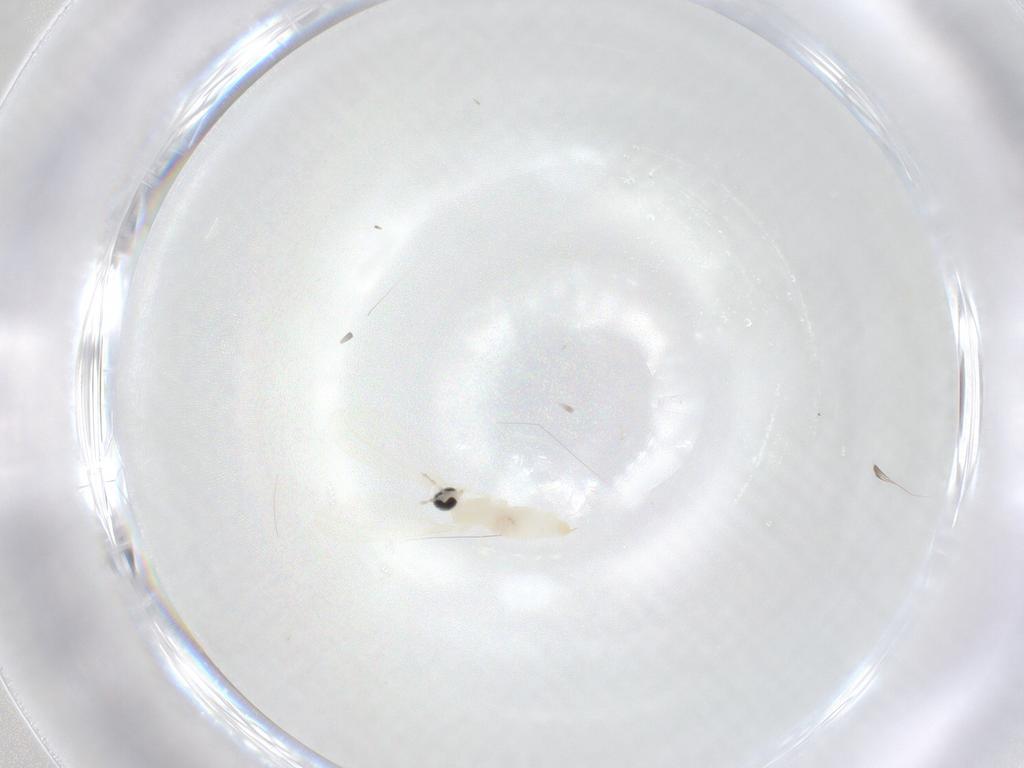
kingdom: Animalia
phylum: Arthropoda
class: Insecta
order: Diptera
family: Cecidomyiidae
